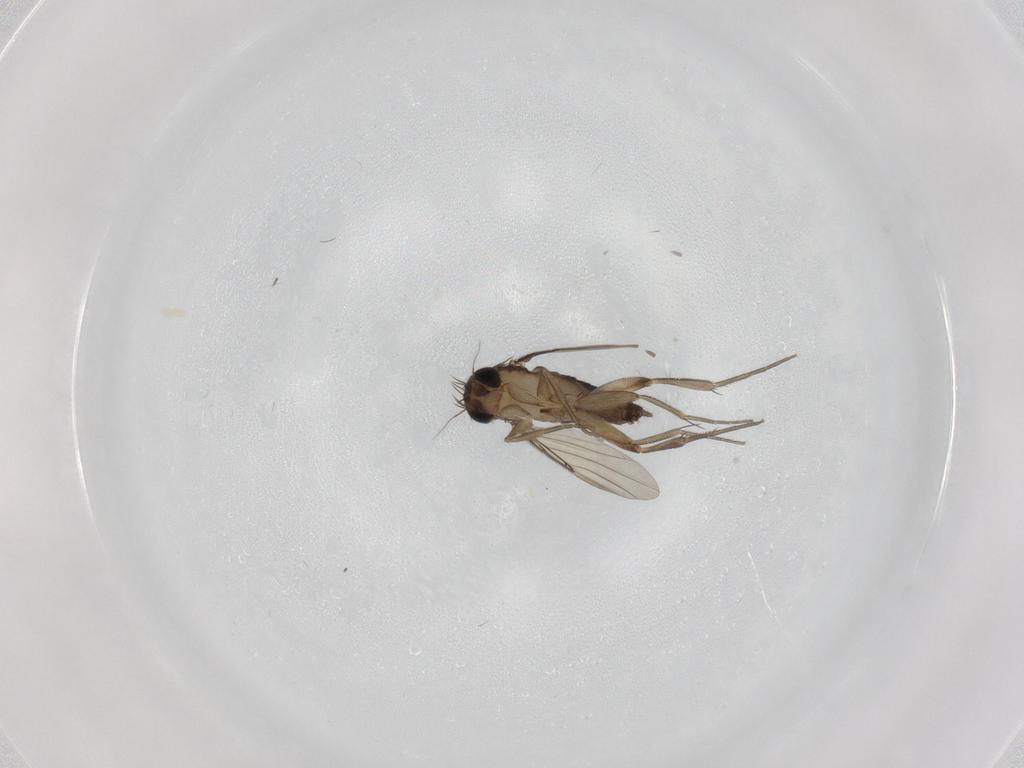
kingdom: Animalia
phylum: Arthropoda
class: Insecta
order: Diptera
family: Phoridae
